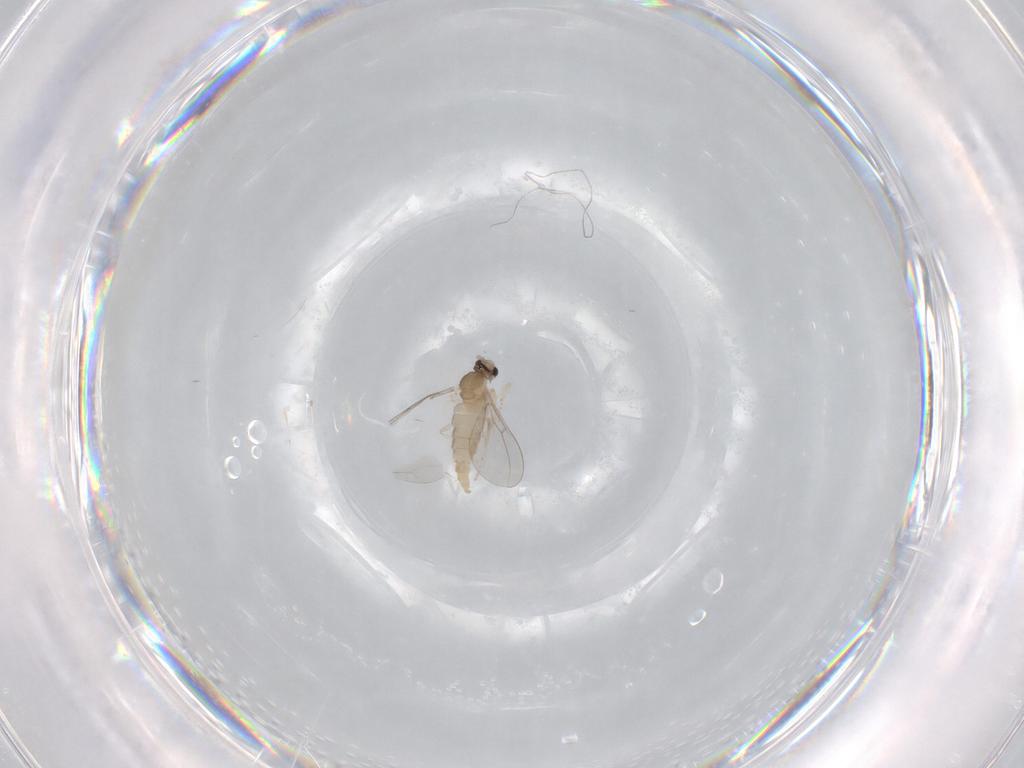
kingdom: Animalia
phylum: Arthropoda
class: Insecta
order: Diptera
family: Cecidomyiidae
